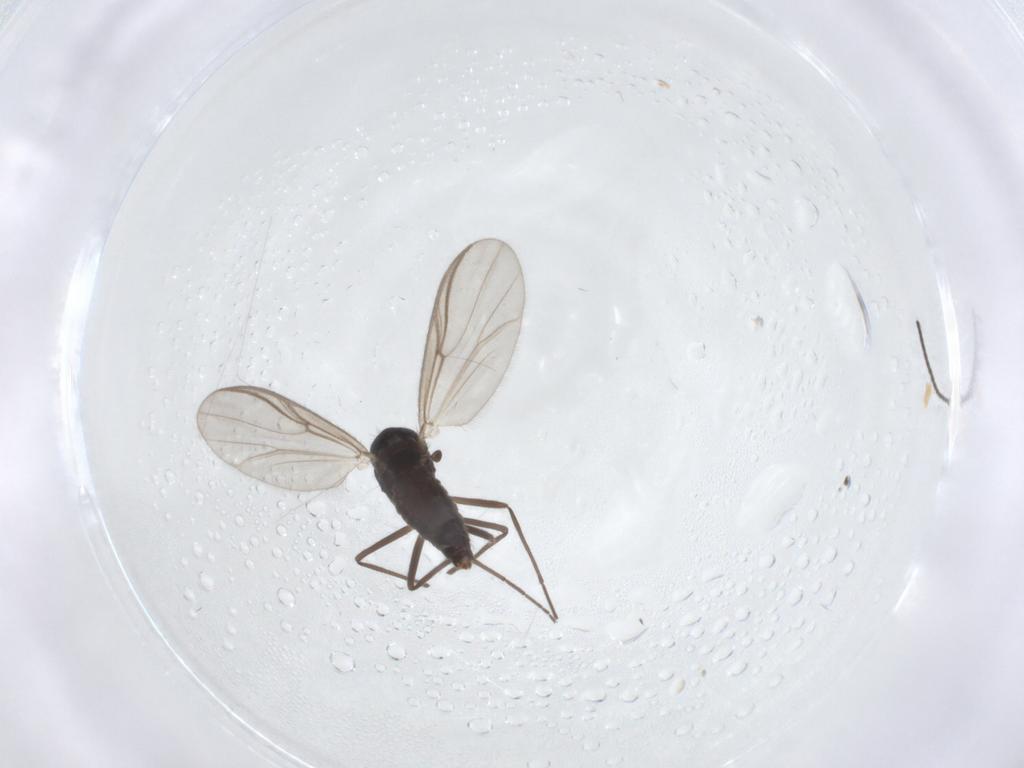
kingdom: Animalia
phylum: Arthropoda
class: Insecta
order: Diptera
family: Chironomidae
